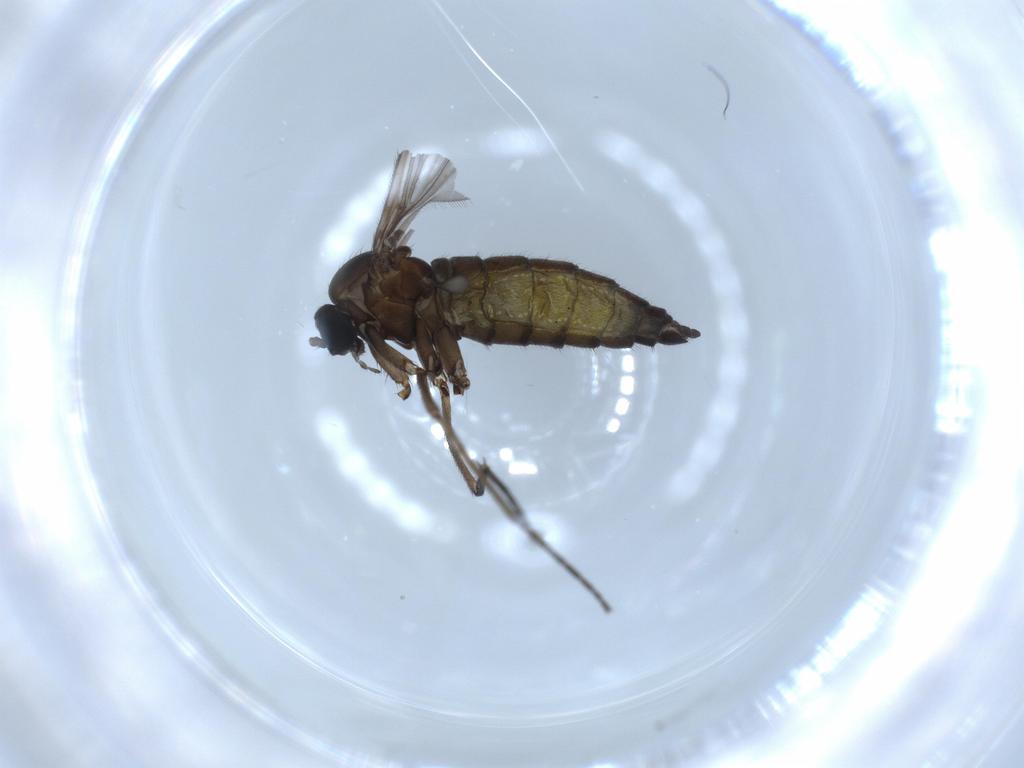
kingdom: Animalia
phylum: Arthropoda
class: Insecta
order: Diptera
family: Sciaridae
